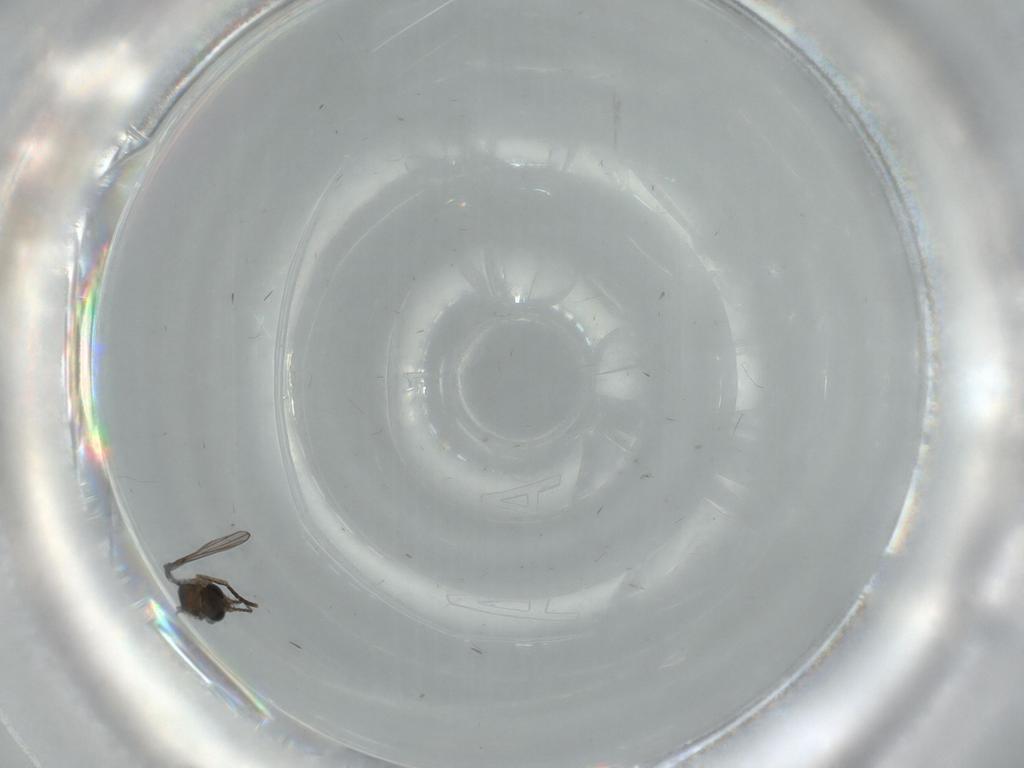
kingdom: Animalia
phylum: Arthropoda
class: Insecta
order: Diptera
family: Psychodidae
